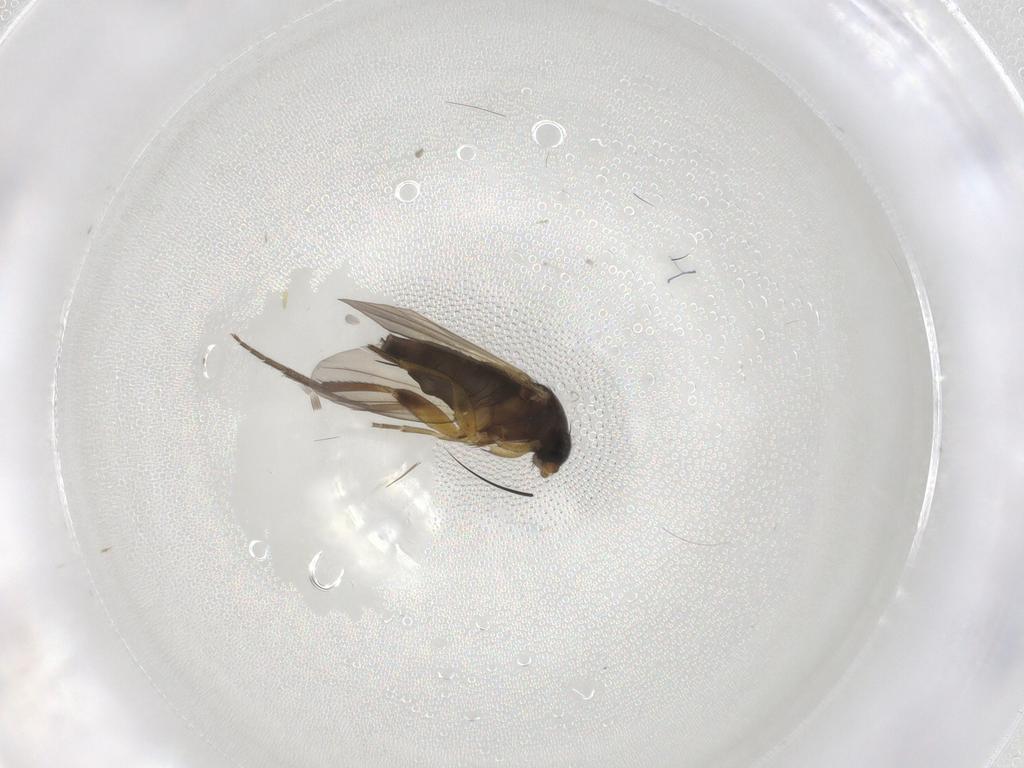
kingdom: Animalia
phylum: Arthropoda
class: Insecta
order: Diptera
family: Phoridae
